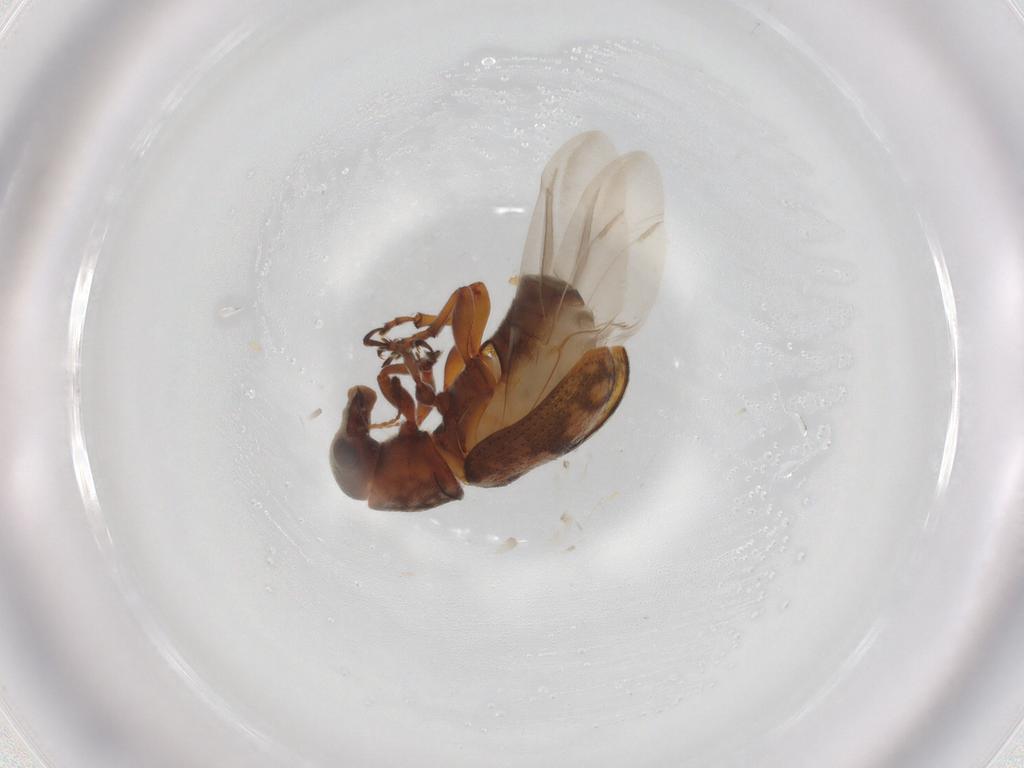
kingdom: Animalia
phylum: Arthropoda
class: Insecta
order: Coleoptera
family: Anthribidae
